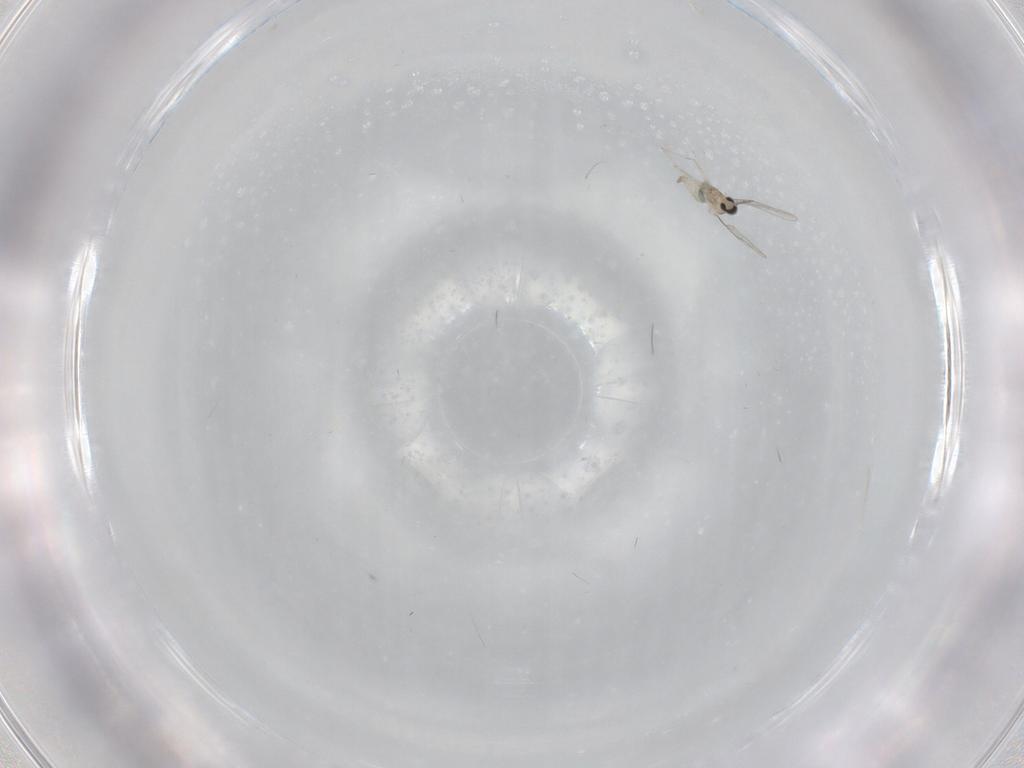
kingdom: Animalia
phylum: Arthropoda
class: Insecta
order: Diptera
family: Cecidomyiidae
